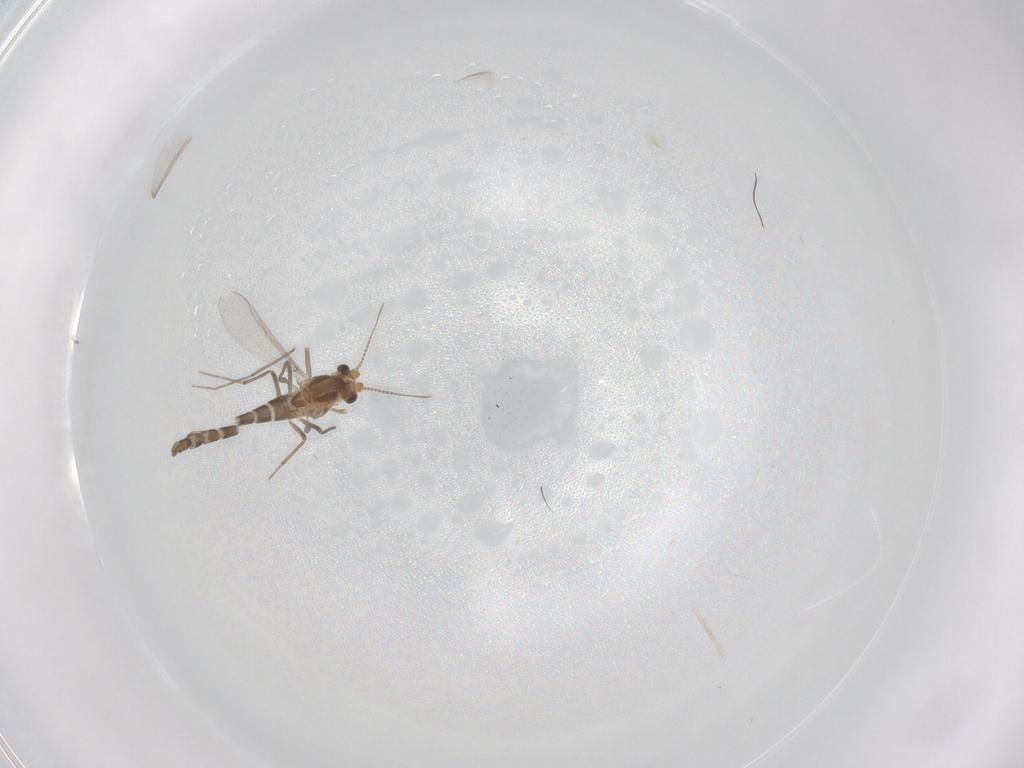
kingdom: Animalia
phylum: Arthropoda
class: Insecta
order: Diptera
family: Chironomidae
